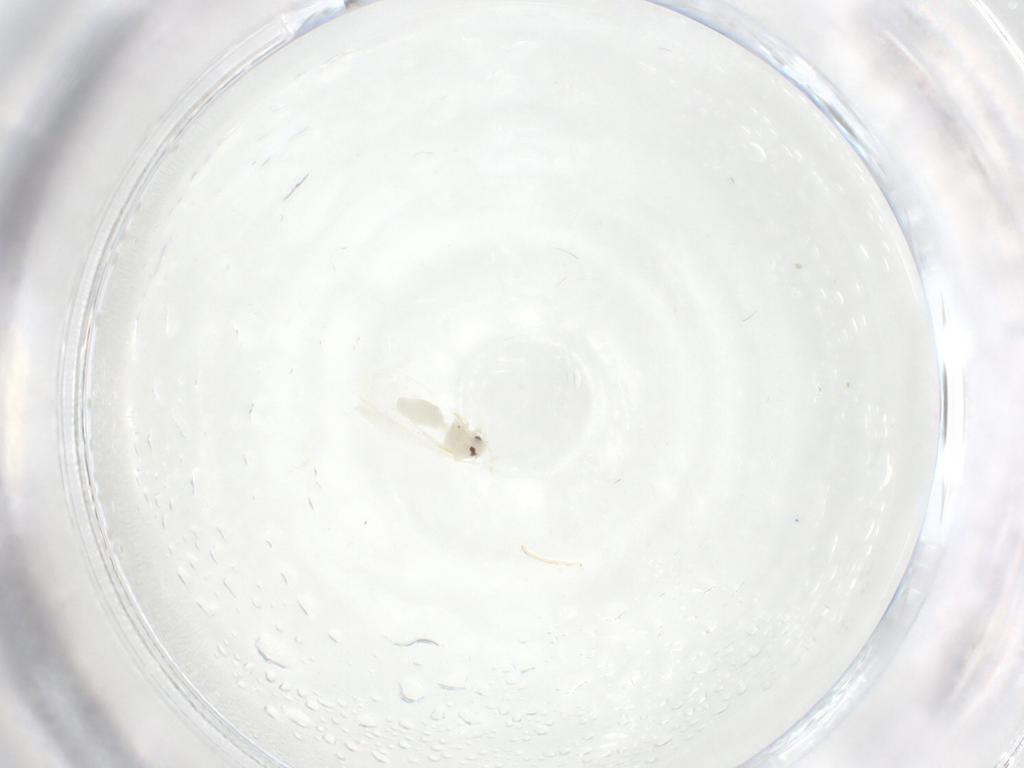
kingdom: Animalia
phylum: Arthropoda
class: Insecta
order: Hemiptera
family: Aleyrodidae
